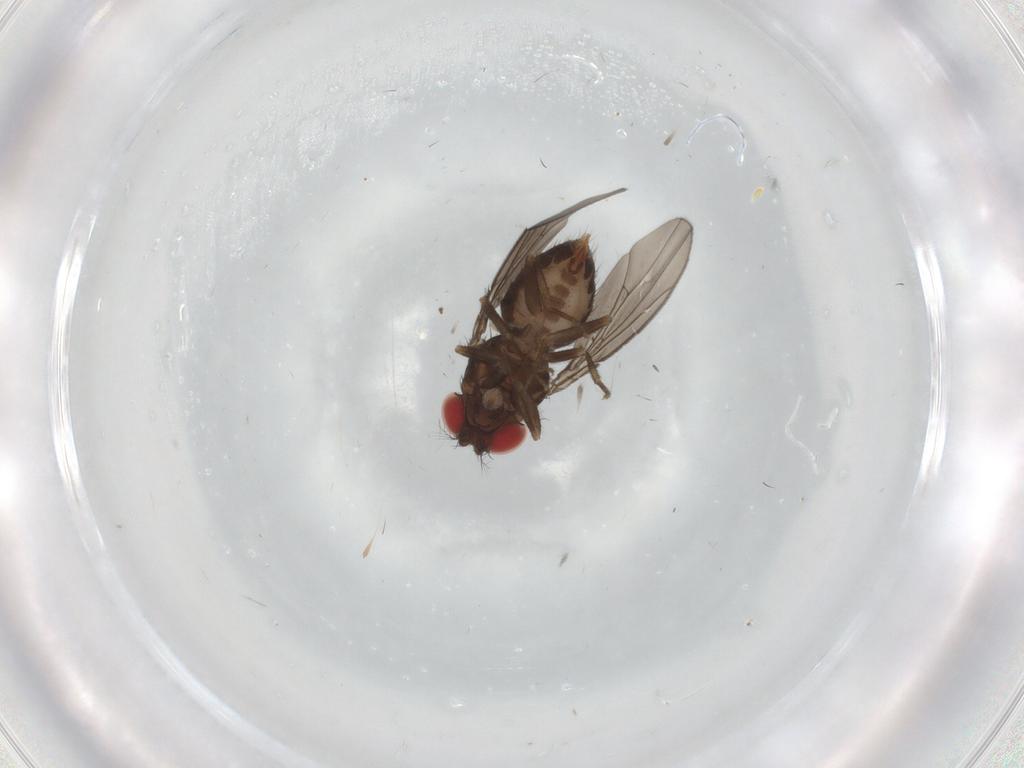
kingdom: Animalia
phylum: Arthropoda
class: Insecta
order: Diptera
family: Drosophilidae
